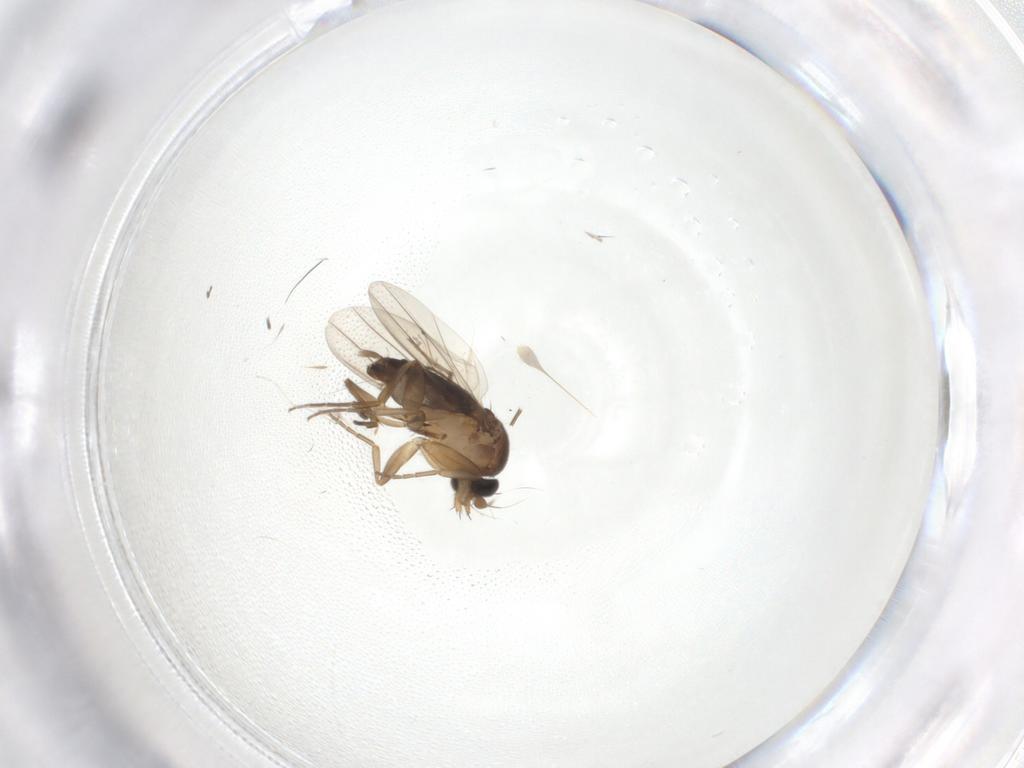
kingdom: Animalia
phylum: Arthropoda
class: Insecta
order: Diptera
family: Phoridae
